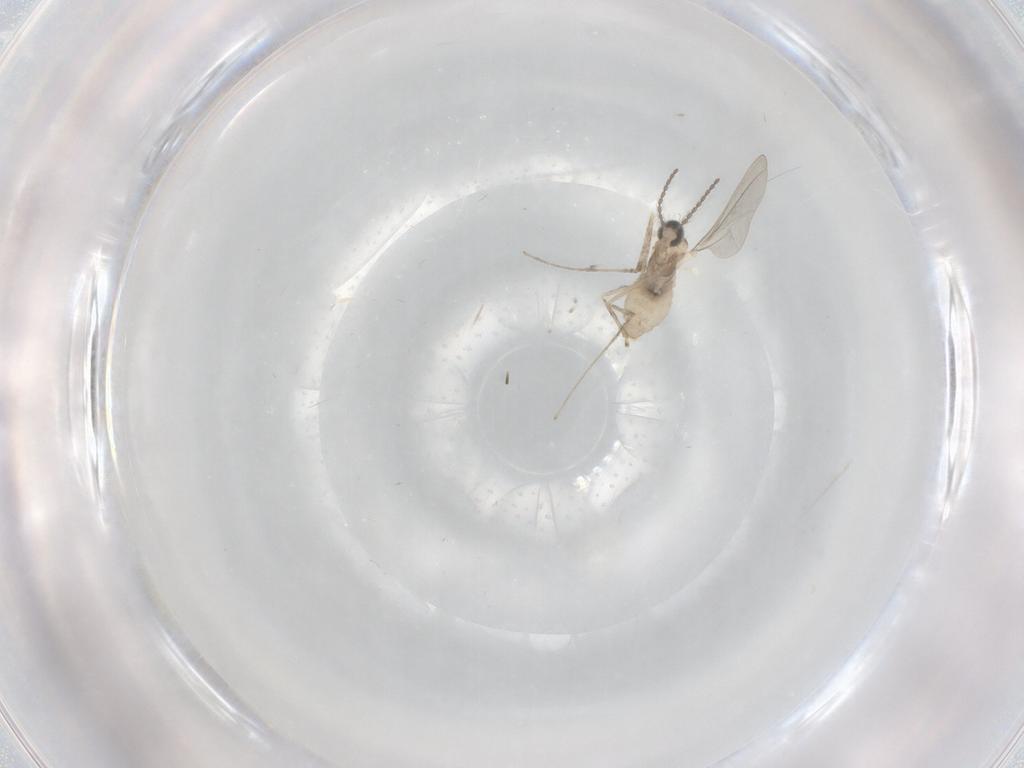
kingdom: Animalia
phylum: Arthropoda
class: Insecta
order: Diptera
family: Cecidomyiidae
